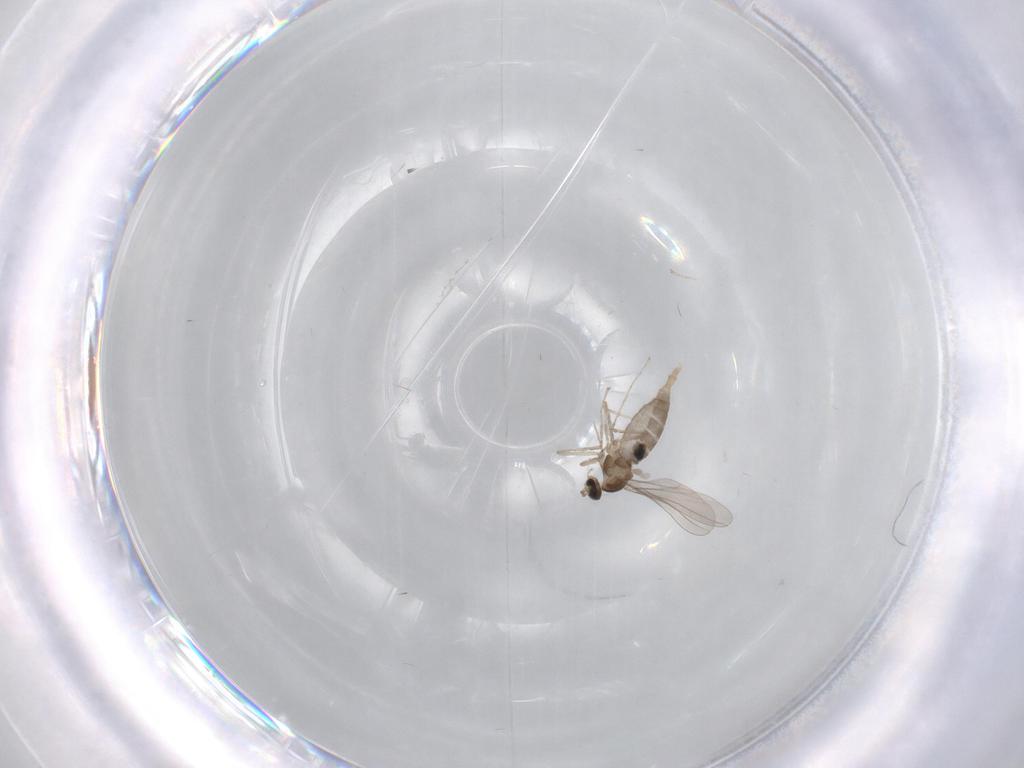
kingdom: Animalia
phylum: Arthropoda
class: Insecta
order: Diptera
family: Cecidomyiidae
